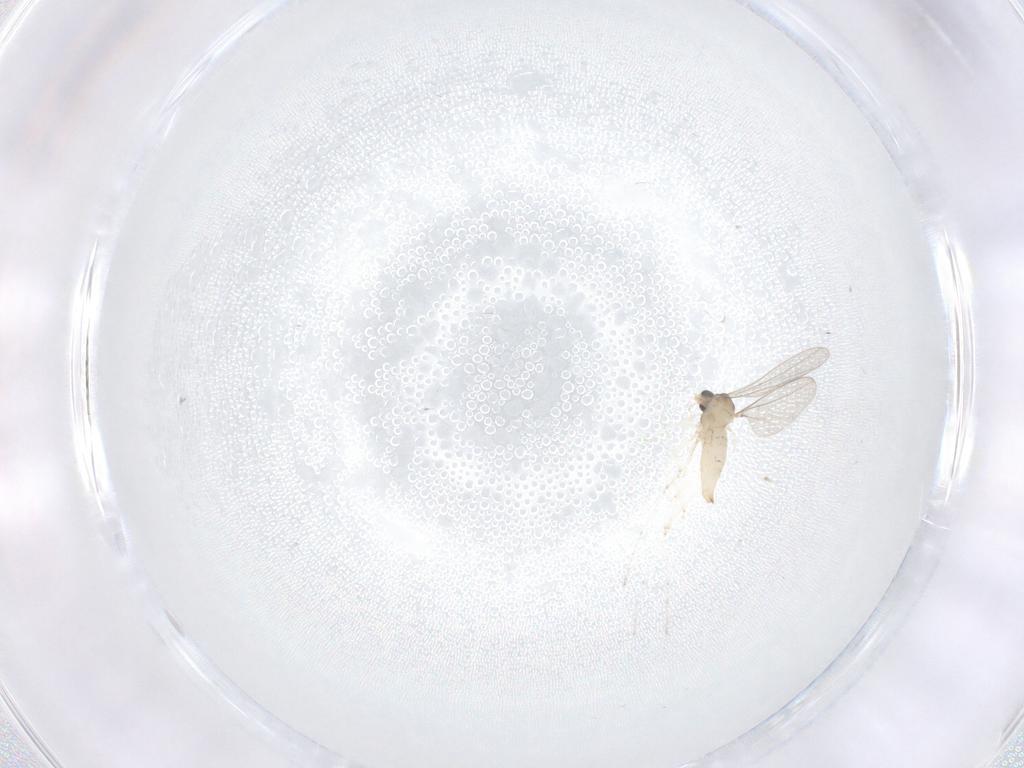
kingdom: Animalia
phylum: Arthropoda
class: Insecta
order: Diptera
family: Cecidomyiidae
